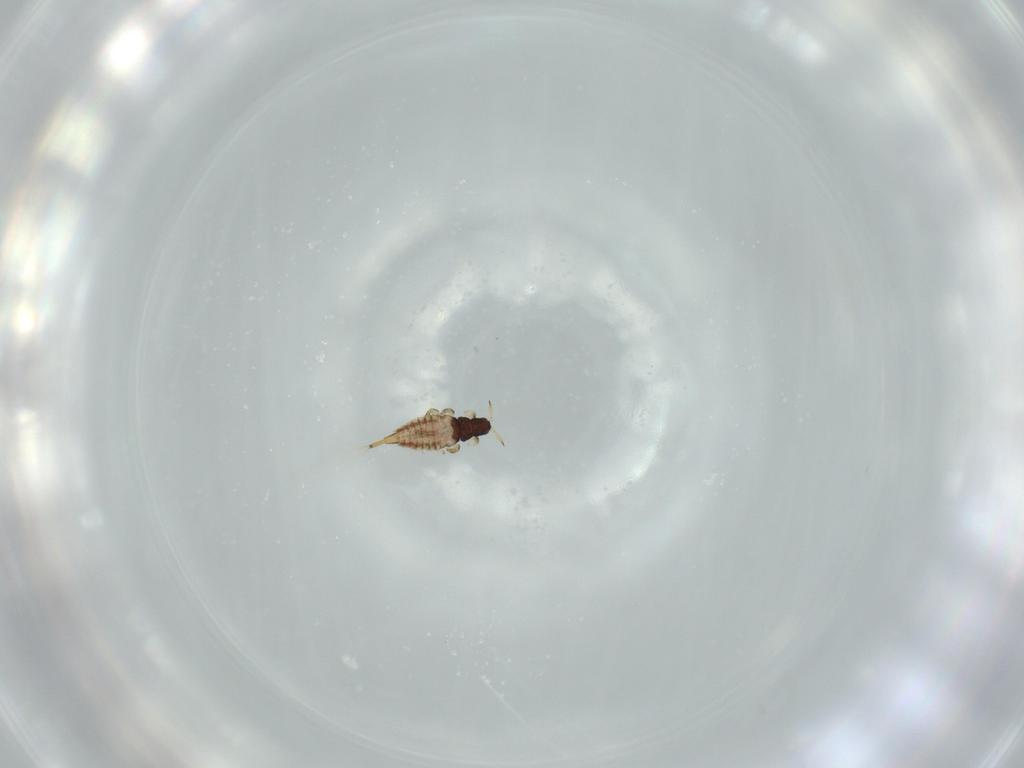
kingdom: Animalia
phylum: Arthropoda
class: Insecta
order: Thysanoptera
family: Phlaeothripidae
